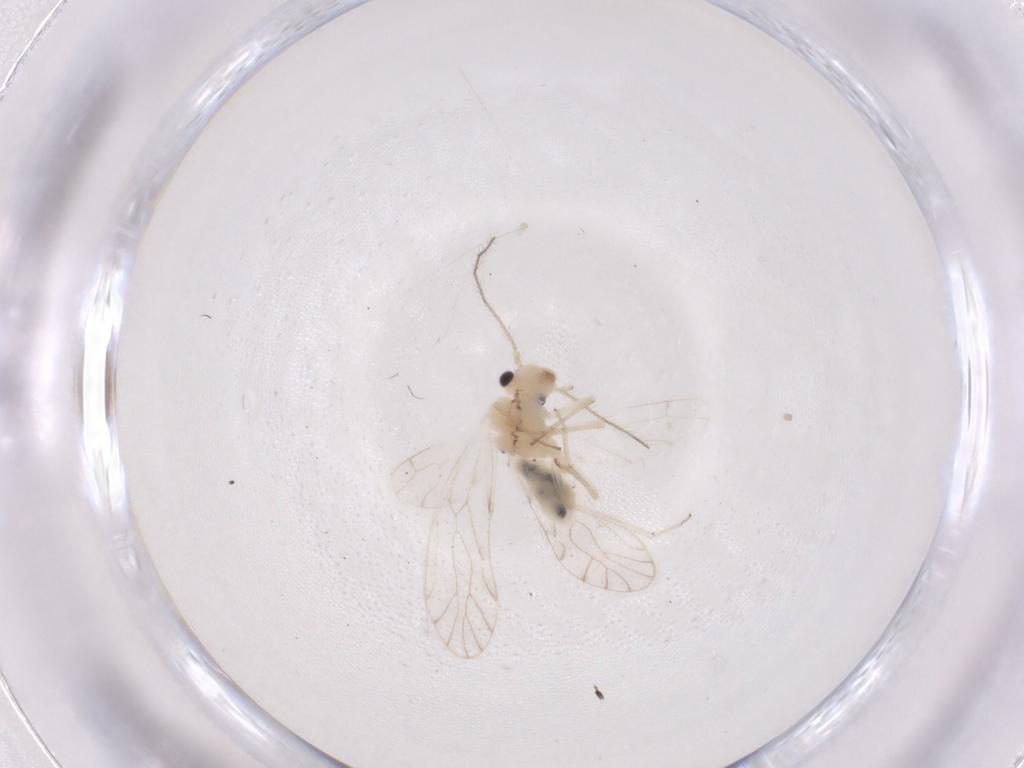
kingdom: Animalia
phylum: Arthropoda
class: Insecta
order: Psocodea
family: Trichopsocidae
